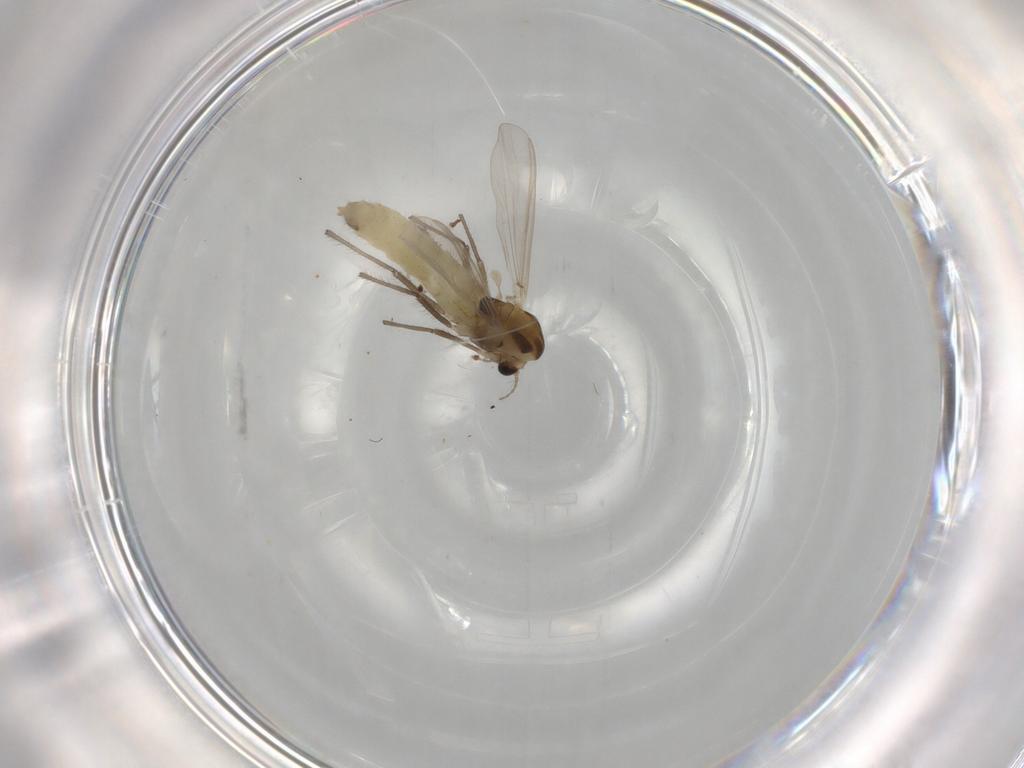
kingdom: Animalia
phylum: Arthropoda
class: Insecta
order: Diptera
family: Chironomidae
